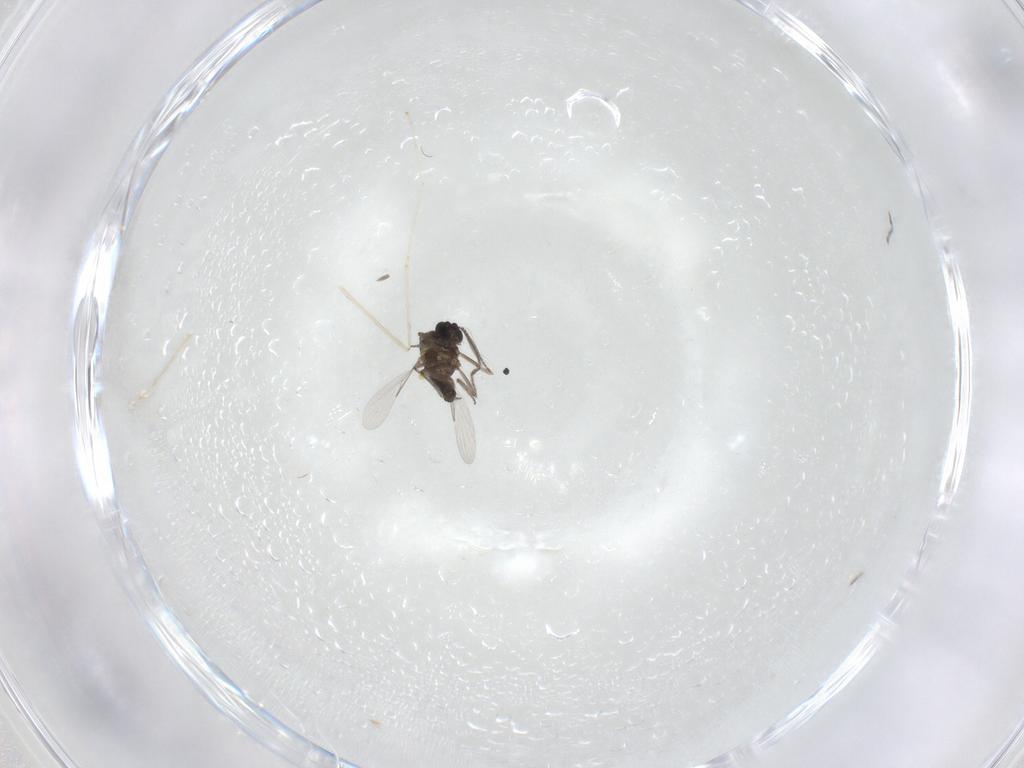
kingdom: Animalia
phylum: Arthropoda
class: Insecta
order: Diptera
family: Ceratopogonidae
